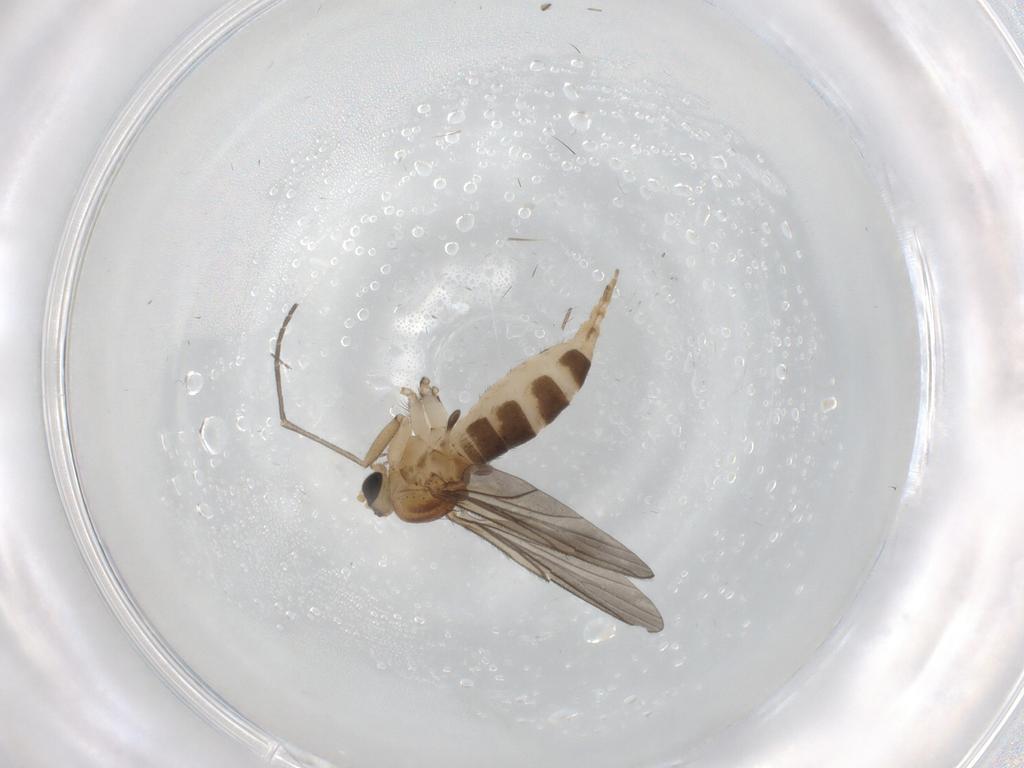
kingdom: Animalia
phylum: Arthropoda
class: Insecta
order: Diptera
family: Sciaridae
